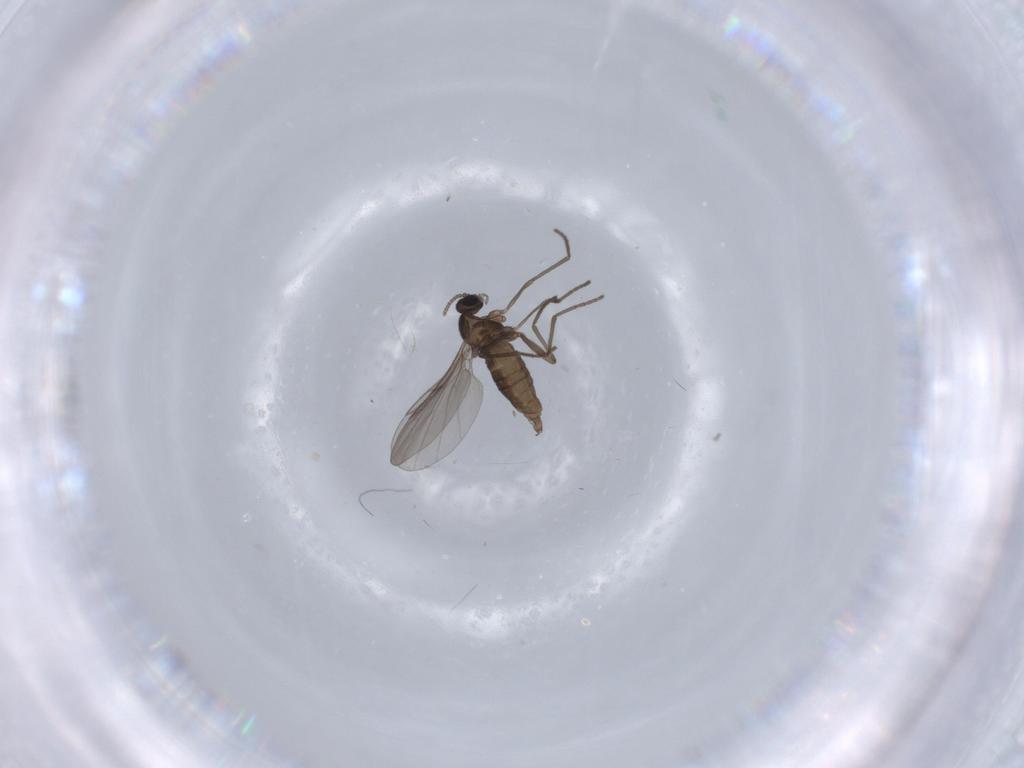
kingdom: Animalia
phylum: Arthropoda
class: Insecta
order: Diptera
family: Cecidomyiidae
